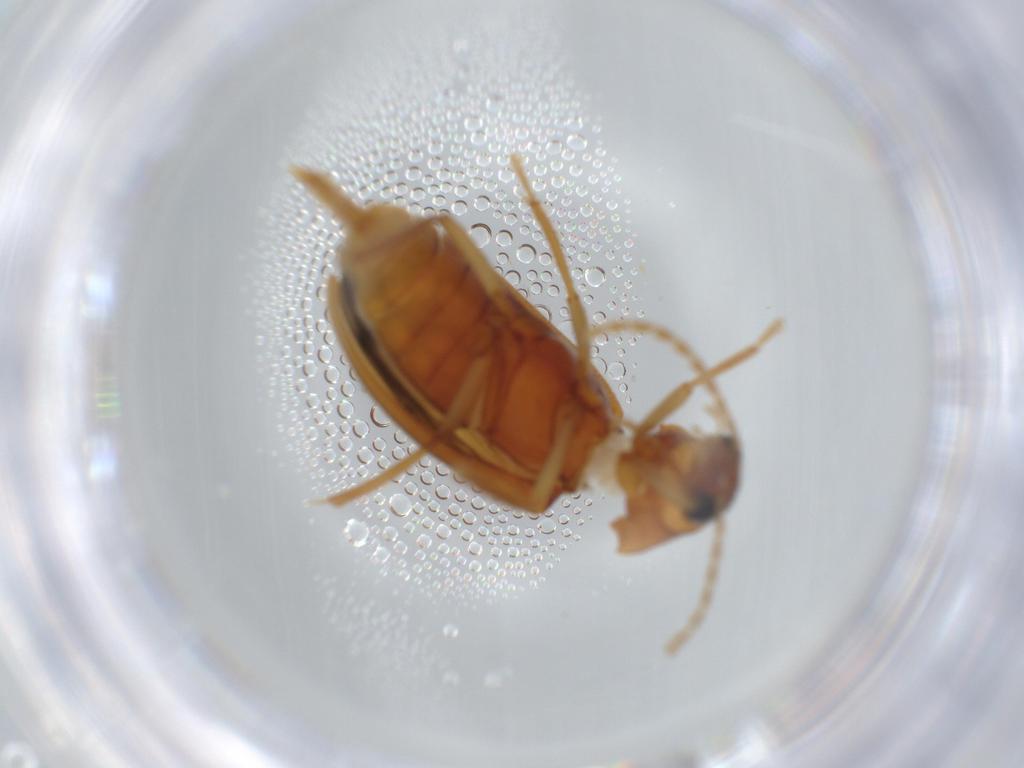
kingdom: Animalia
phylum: Arthropoda
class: Insecta
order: Coleoptera
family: Ptilodactylidae
